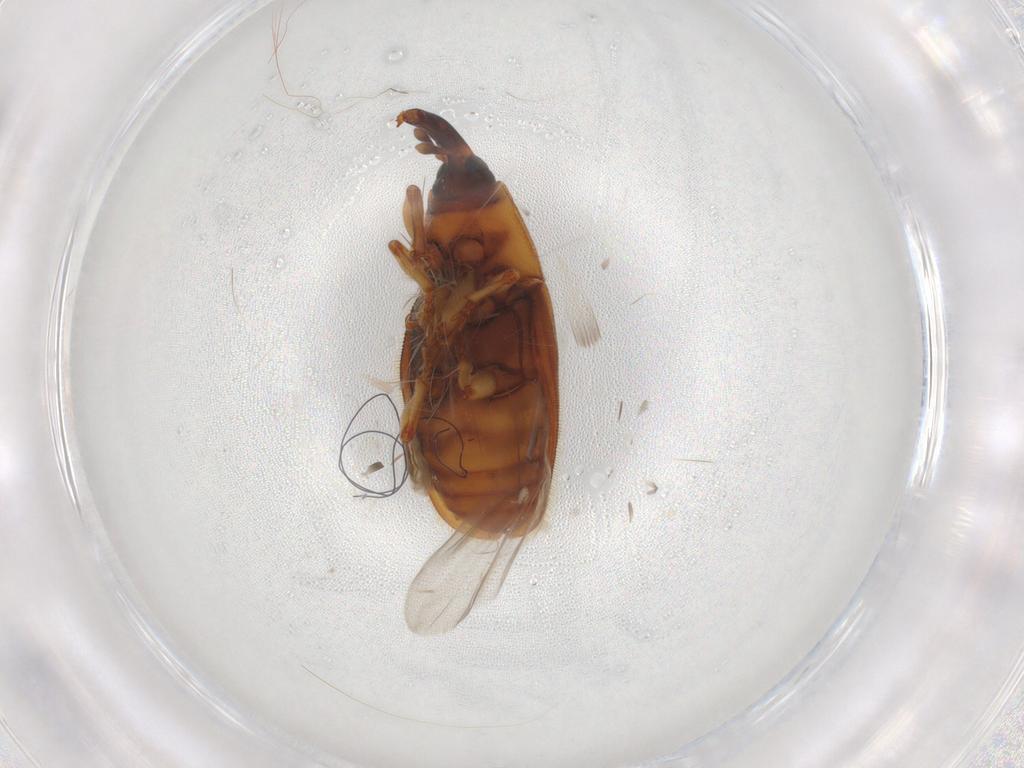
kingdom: Animalia
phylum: Arthropoda
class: Insecta
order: Coleoptera
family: Curculionidae
